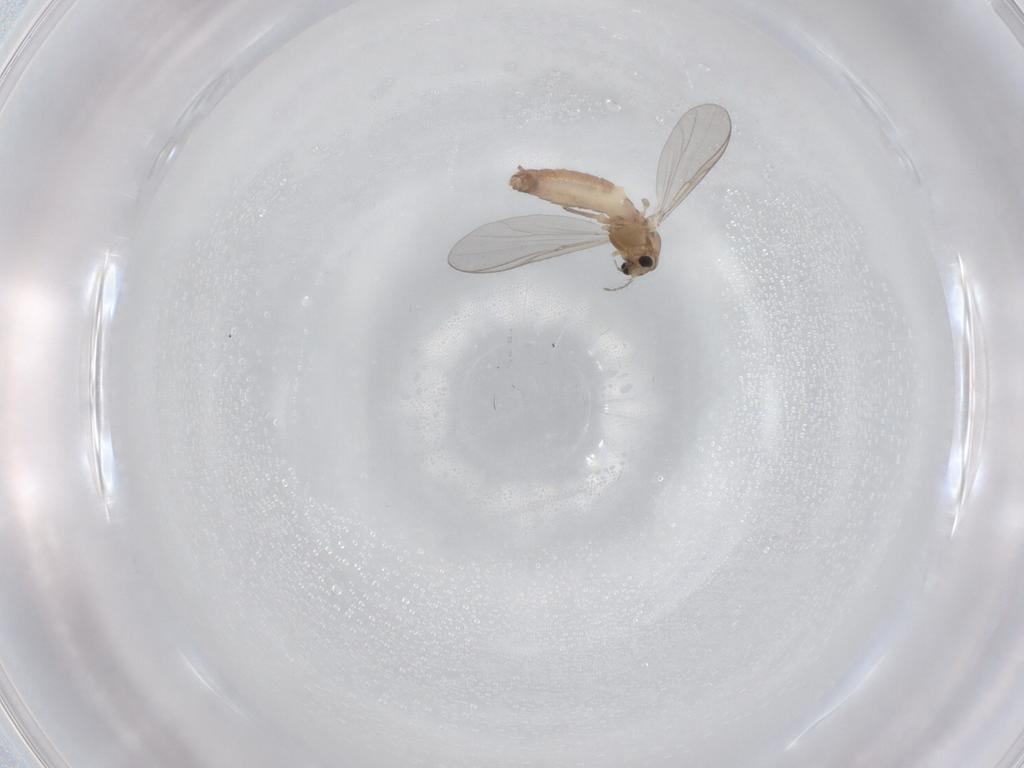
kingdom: Animalia
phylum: Arthropoda
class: Insecta
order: Diptera
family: Chironomidae
